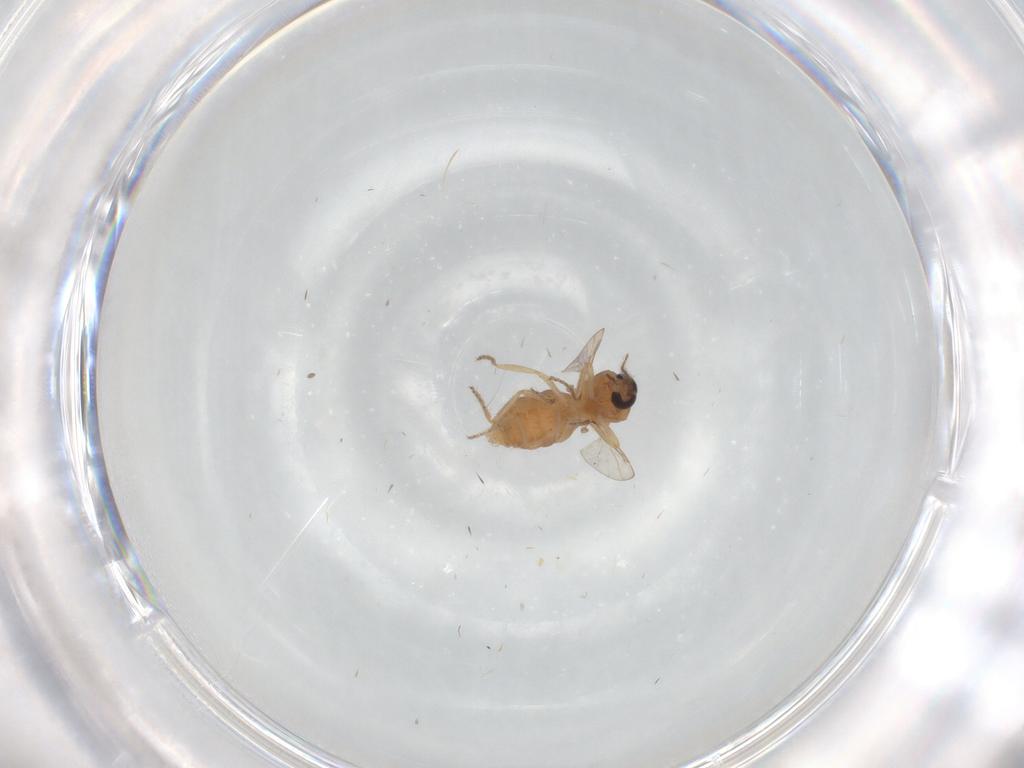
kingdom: Animalia
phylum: Arthropoda
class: Insecta
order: Diptera
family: Ceratopogonidae
